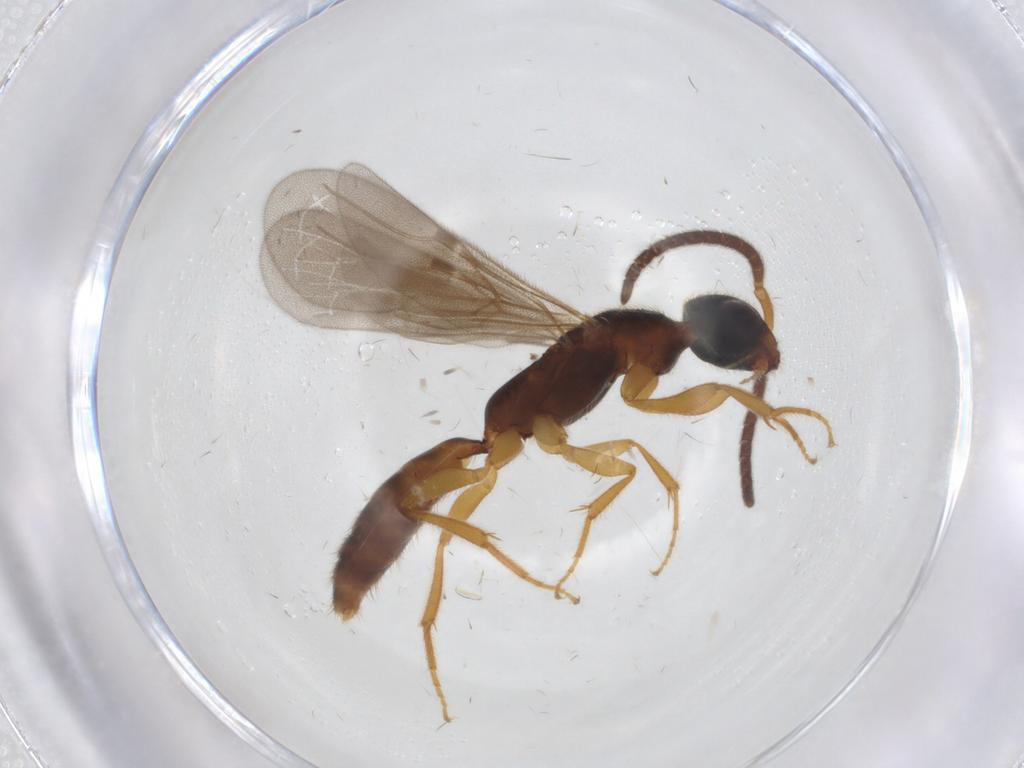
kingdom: Animalia
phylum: Arthropoda
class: Insecta
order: Hymenoptera
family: Bethylidae
